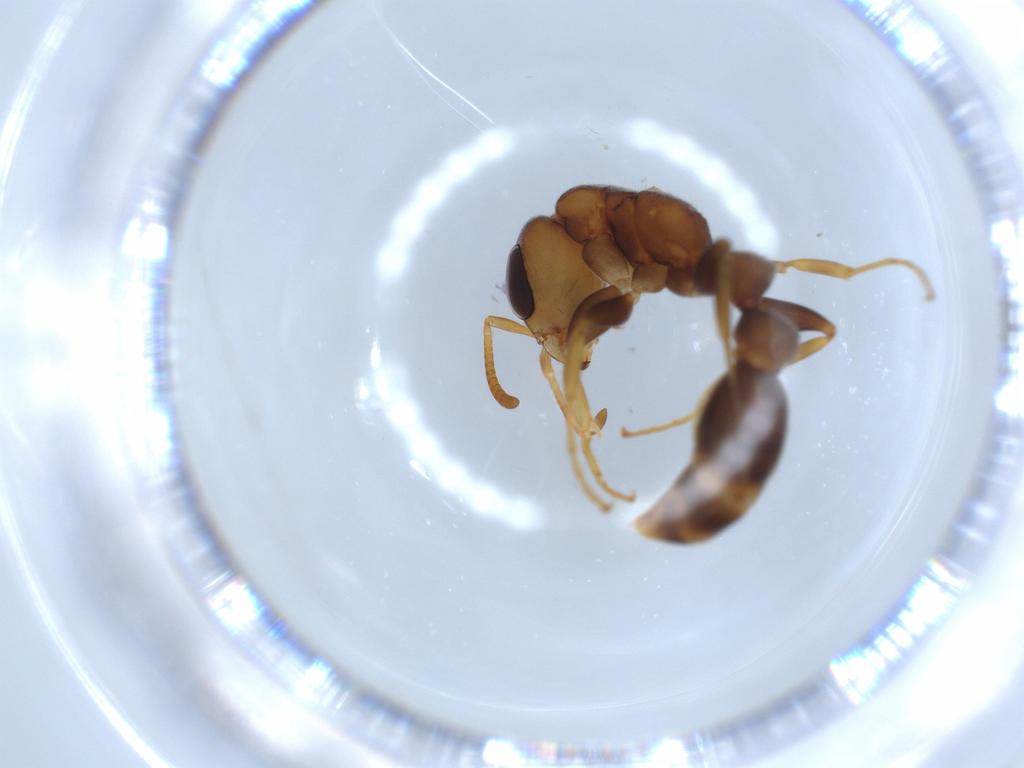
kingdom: Animalia
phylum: Arthropoda
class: Insecta
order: Hymenoptera
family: Formicidae
